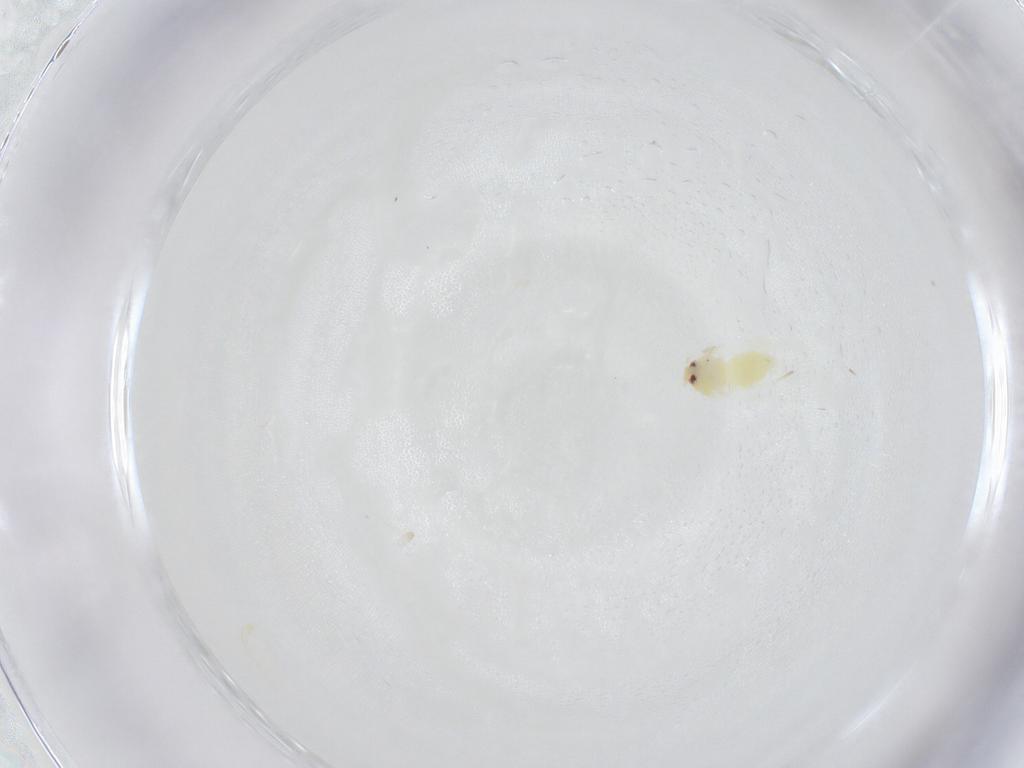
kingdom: Animalia
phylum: Arthropoda
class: Insecta
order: Hemiptera
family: Aleyrodidae
